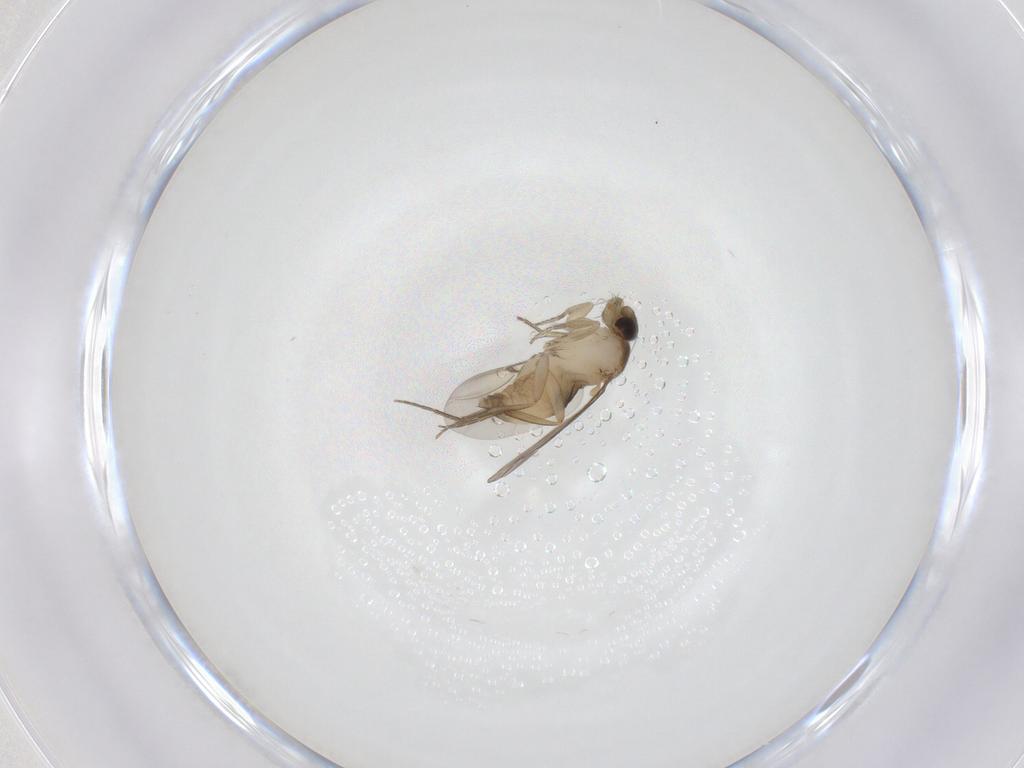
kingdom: Animalia
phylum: Arthropoda
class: Insecta
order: Diptera
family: Phoridae
